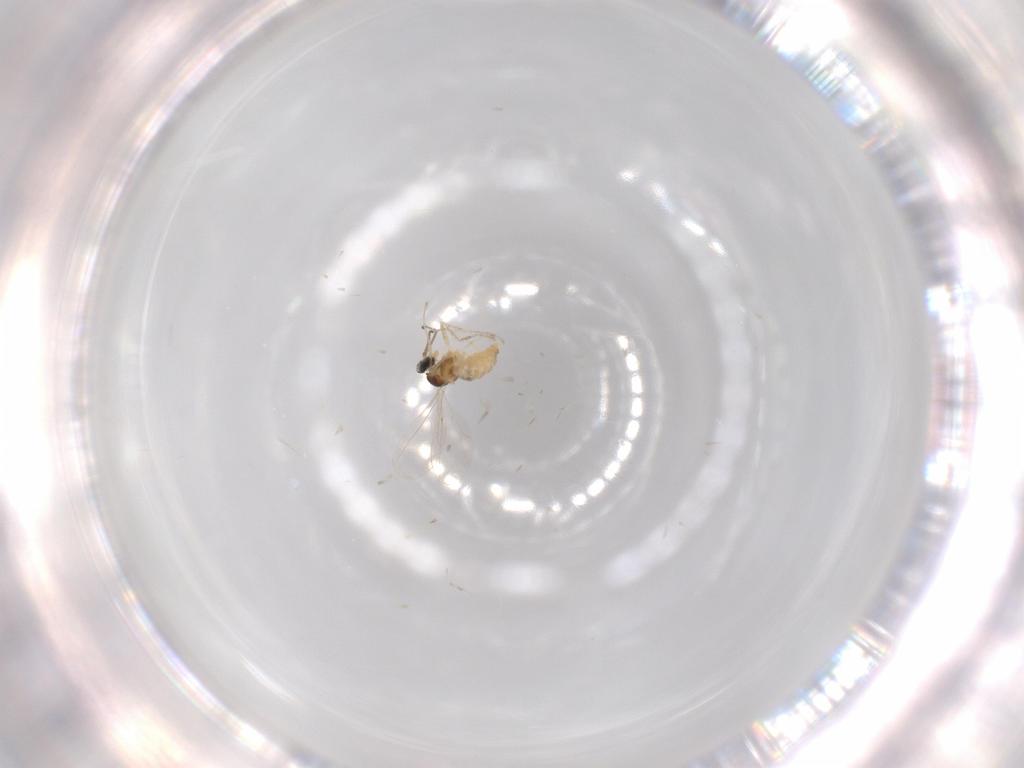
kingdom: Animalia
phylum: Arthropoda
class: Insecta
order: Diptera
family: Cecidomyiidae
